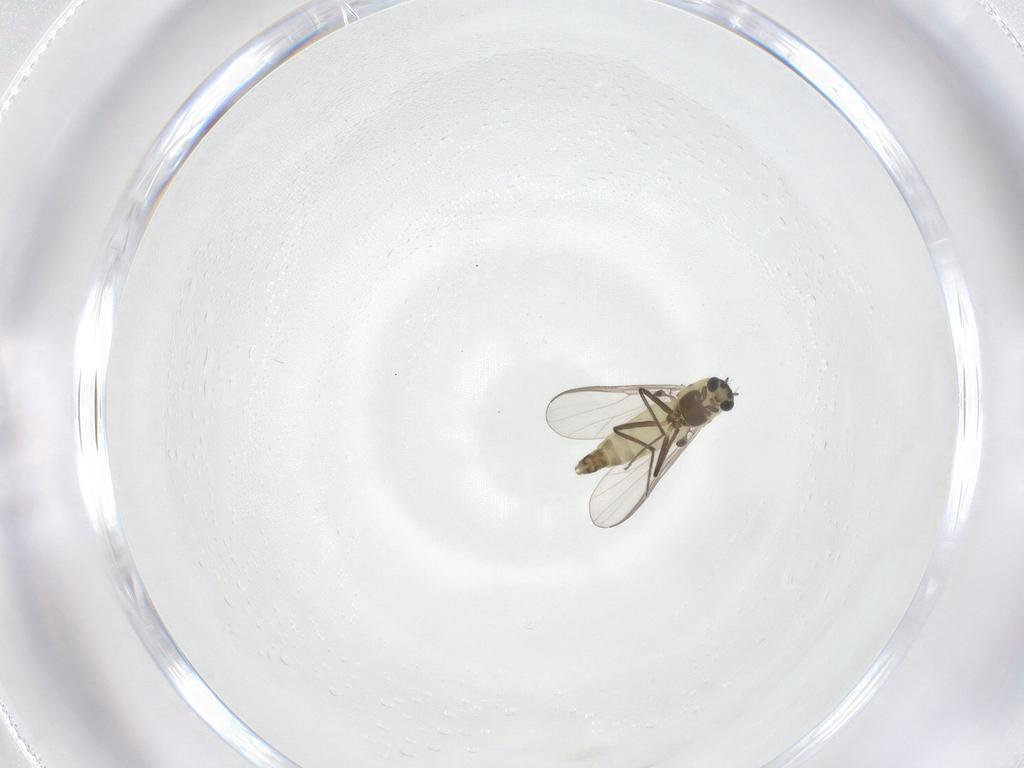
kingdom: Animalia
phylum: Arthropoda
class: Insecta
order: Diptera
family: Chironomidae
